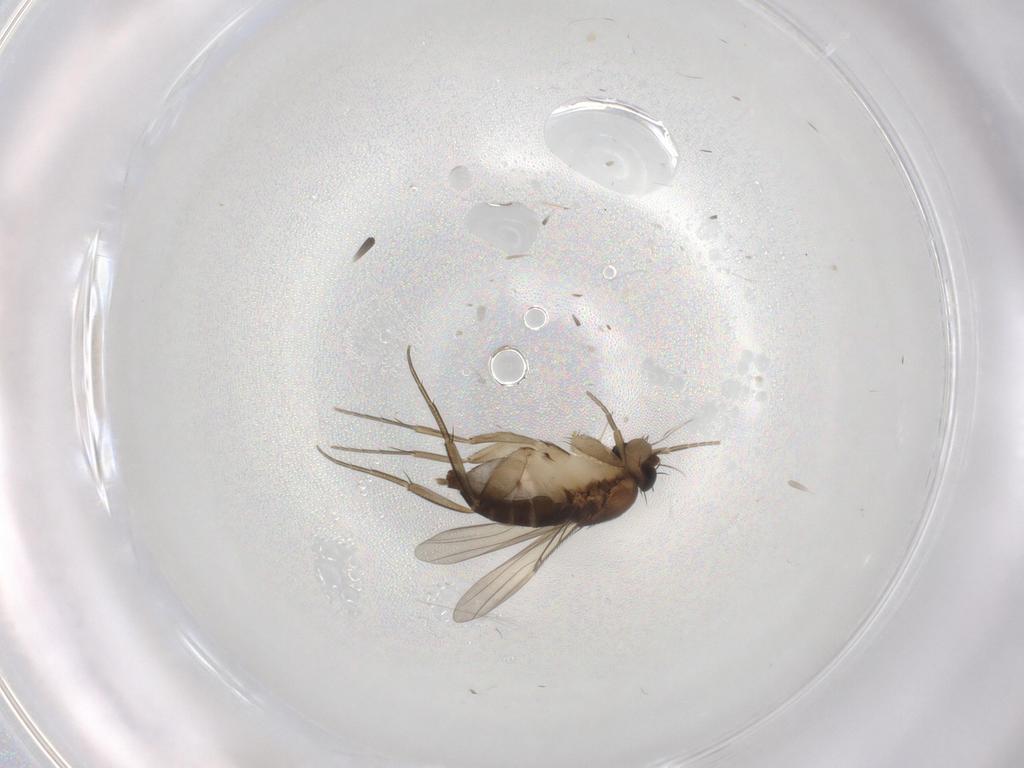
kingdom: Animalia
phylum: Arthropoda
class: Insecta
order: Diptera
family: Phoridae
